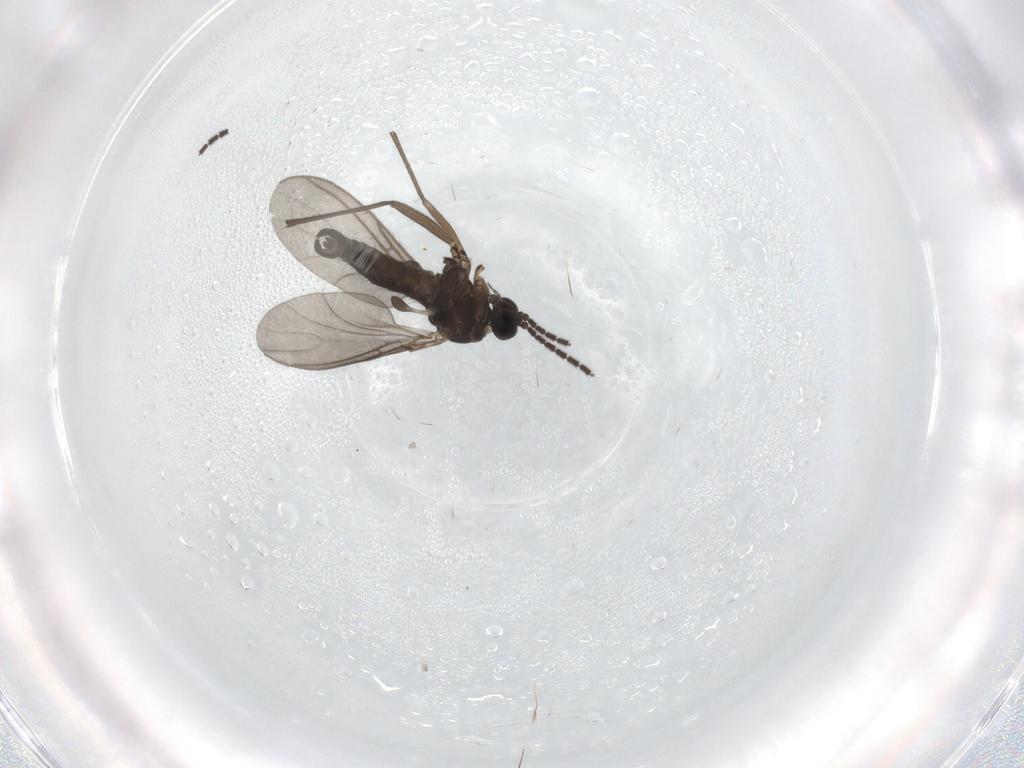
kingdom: Animalia
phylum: Arthropoda
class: Insecta
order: Diptera
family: Sciaridae
